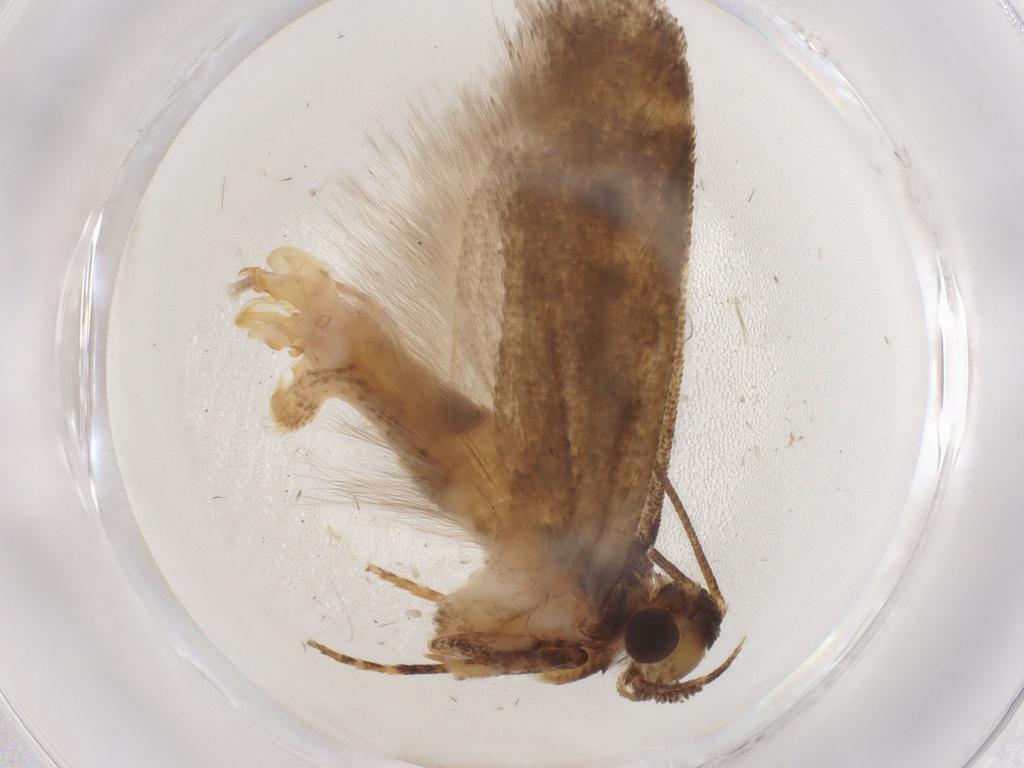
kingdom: Animalia
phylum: Arthropoda
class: Insecta
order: Lepidoptera
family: Gelechiidae
